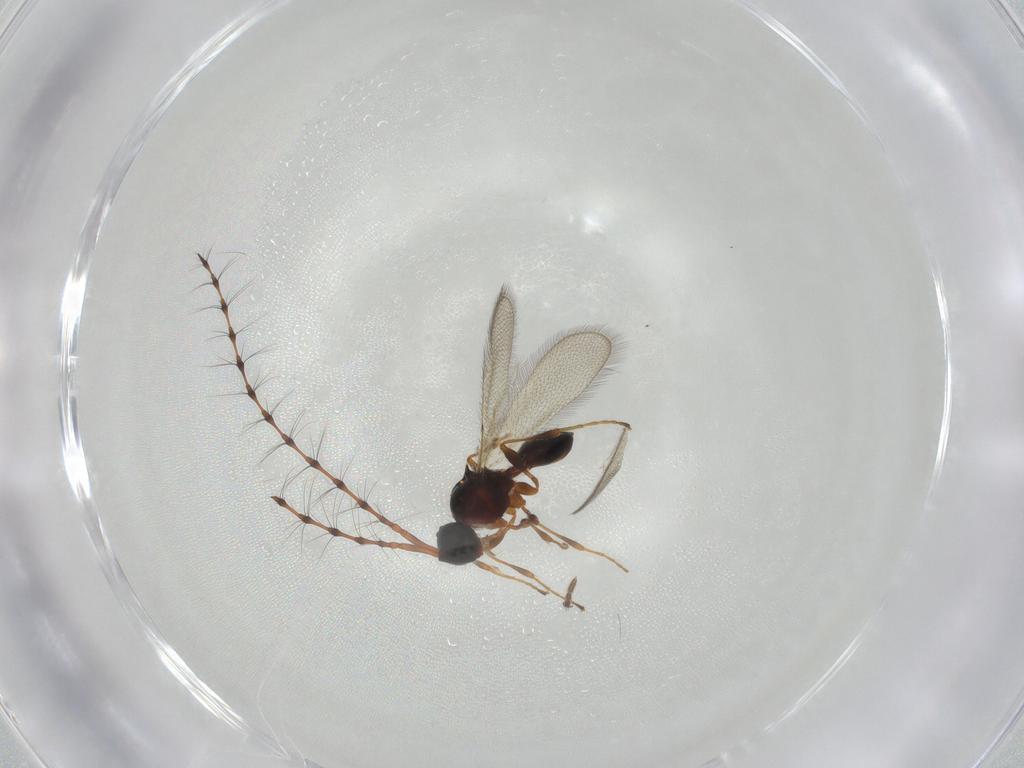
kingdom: Animalia
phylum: Arthropoda
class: Insecta
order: Hymenoptera
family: Diapriidae
